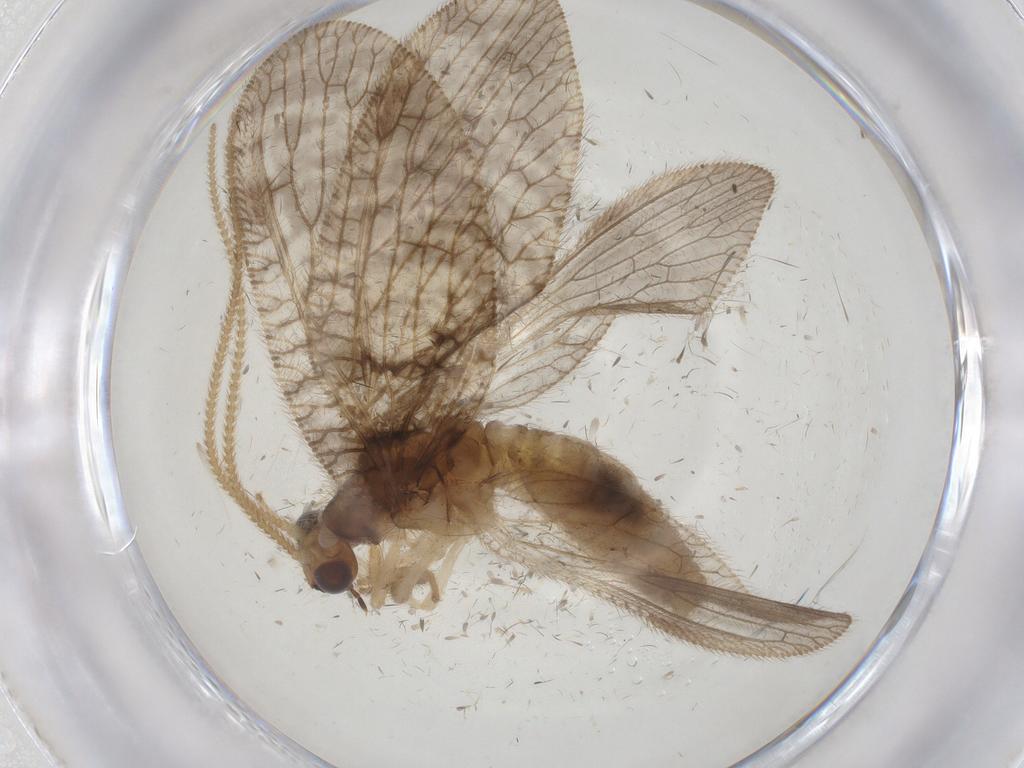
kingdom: Animalia
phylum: Arthropoda
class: Insecta
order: Neuroptera
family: Hemerobiidae
